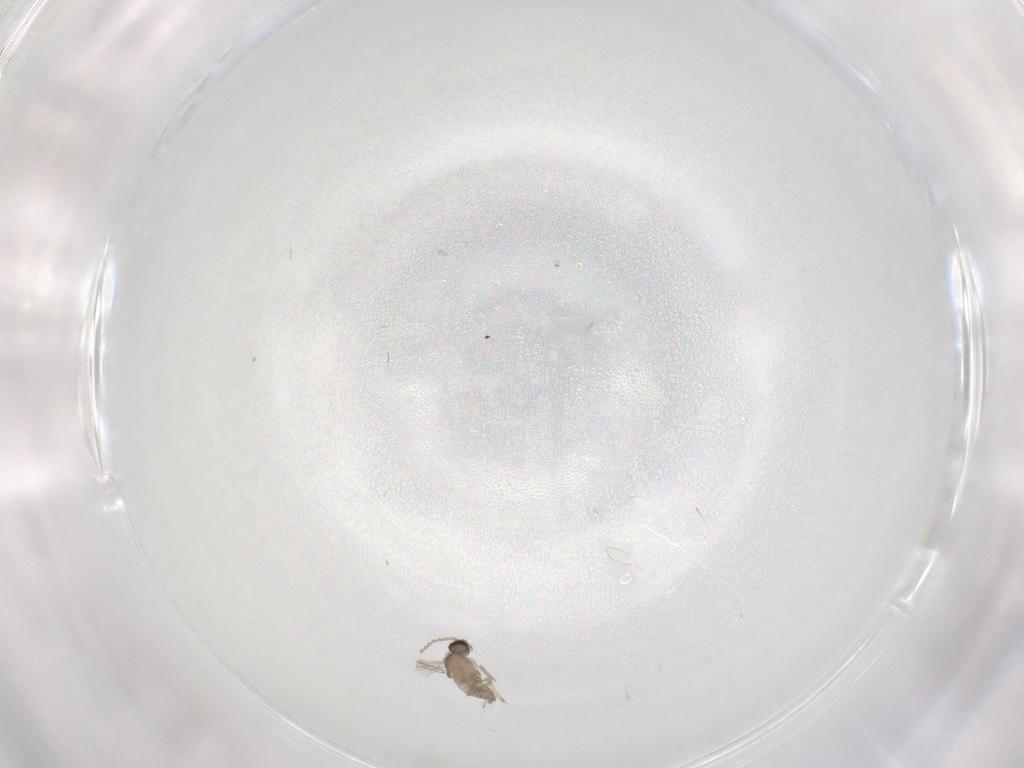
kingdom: Animalia
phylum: Arthropoda
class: Insecta
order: Diptera
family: Cecidomyiidae
